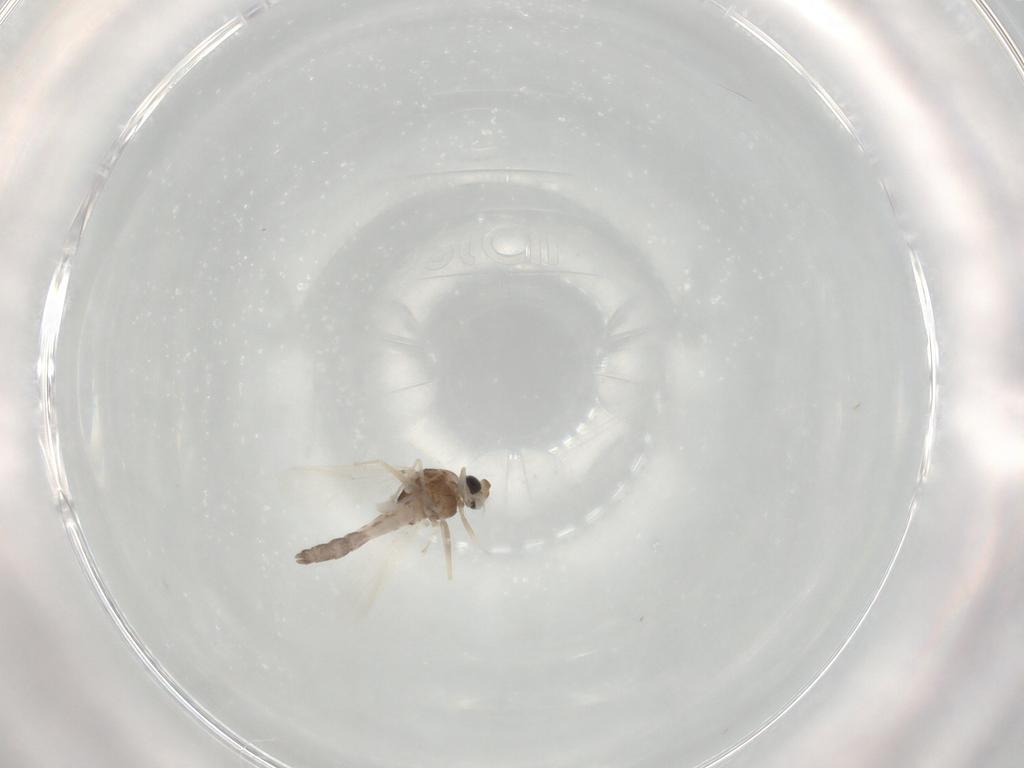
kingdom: Animalia
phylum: Arthropoda
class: Insecta
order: Diptera
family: Chironomidae
